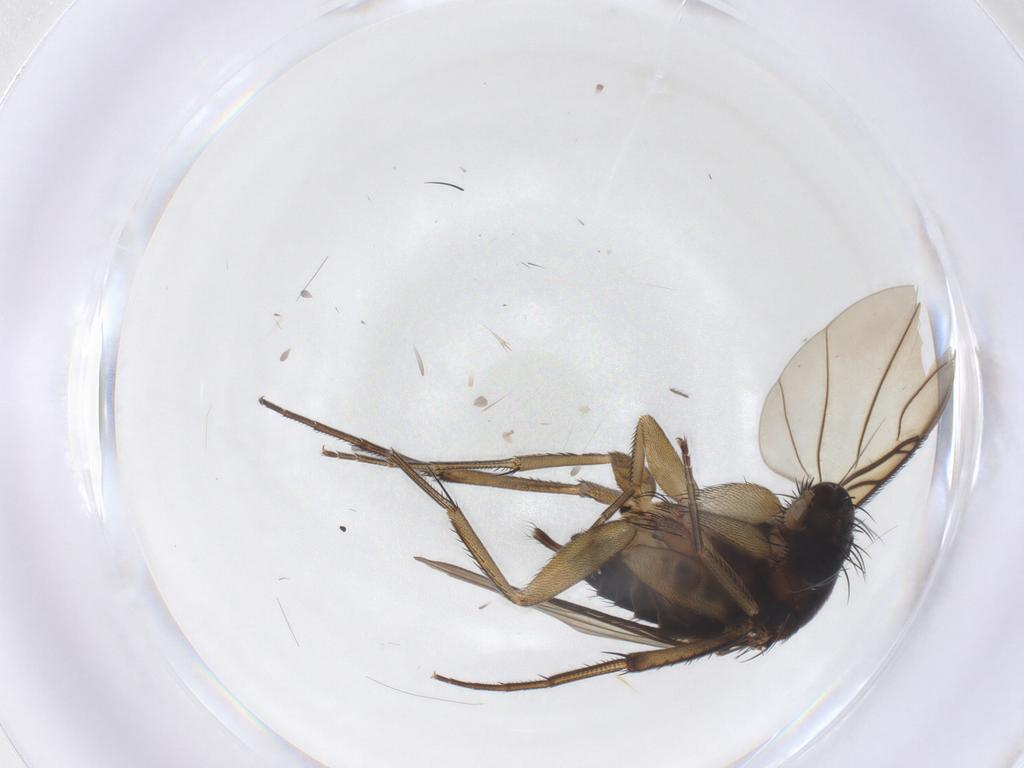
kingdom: Animalia
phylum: Arthropoda
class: Insecta
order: Diptera
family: Phoridae
